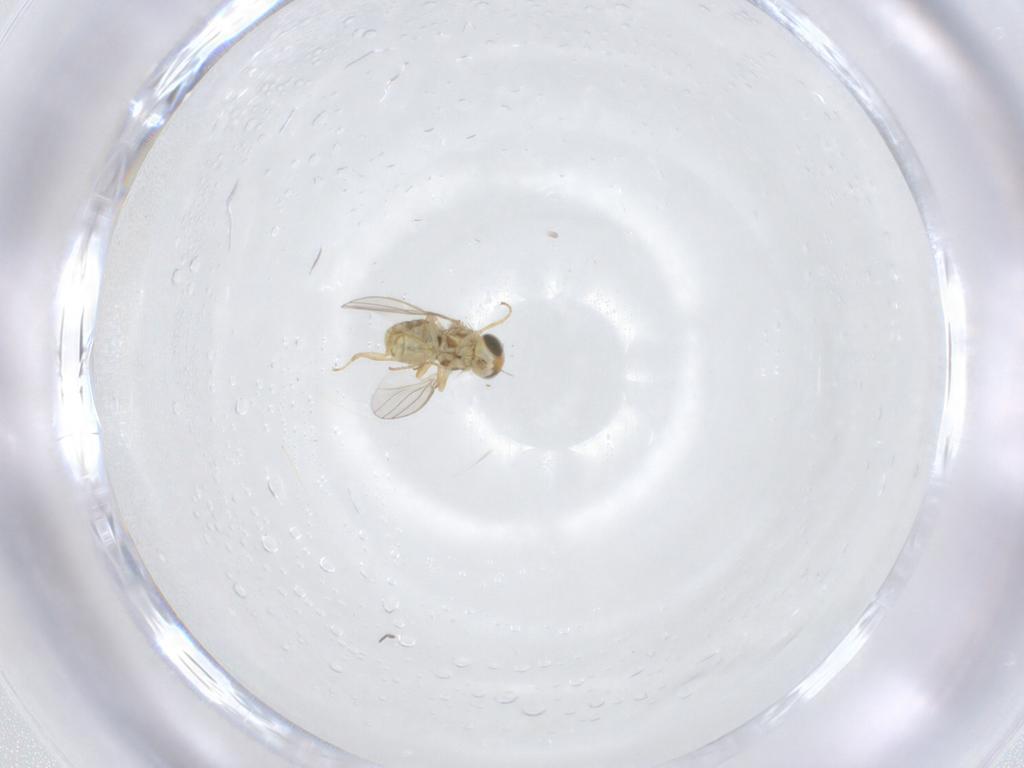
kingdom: Animalia
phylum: Arthropoda
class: Insecta
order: Diptera
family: Chyromyidae
